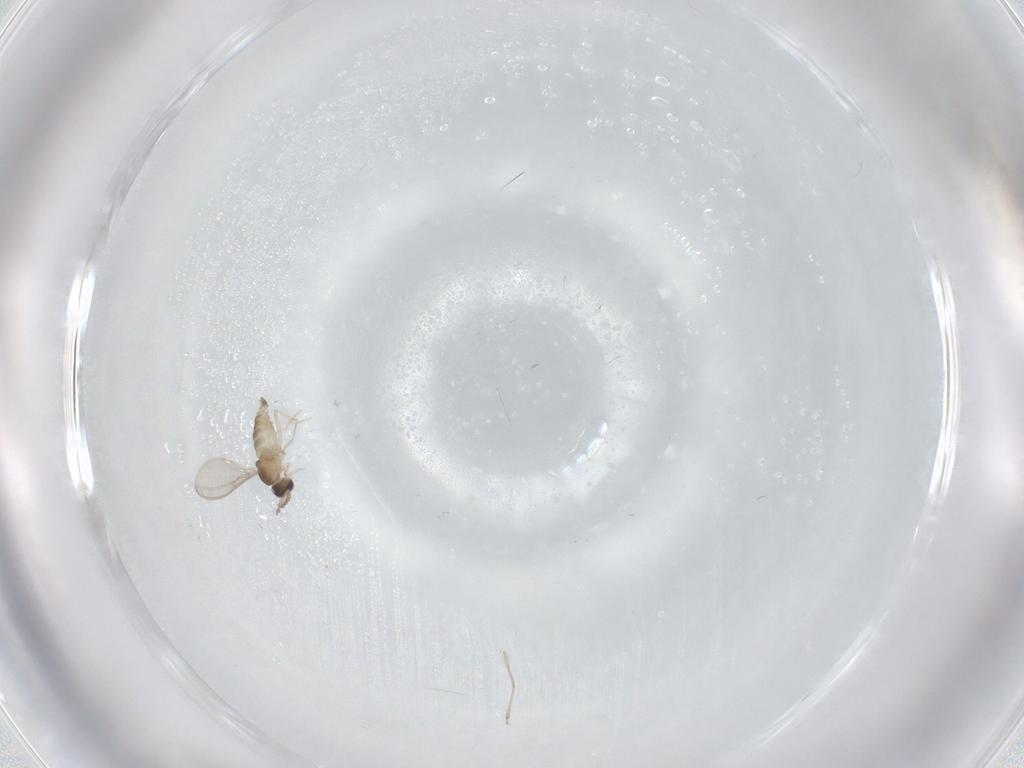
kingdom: Animalia
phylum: Arthropoda
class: Insecta
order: Diptera
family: Cecidomyiidae
